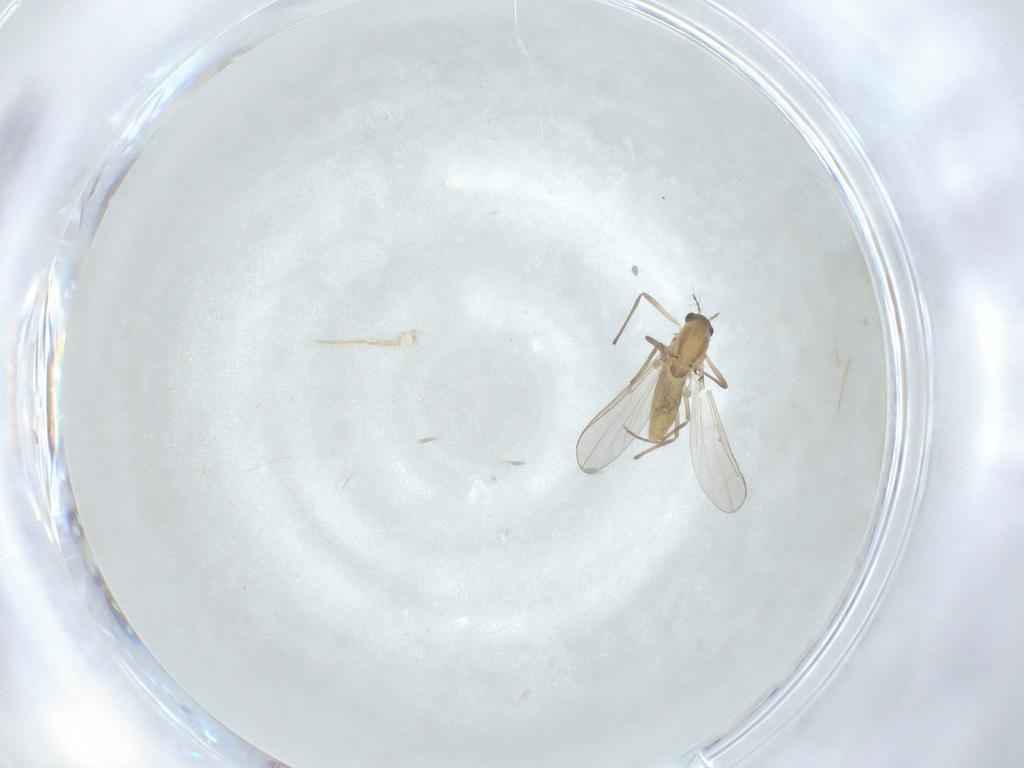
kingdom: Animalia
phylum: Arthropoda
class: Insecta
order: Diptera
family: Chironomidae
